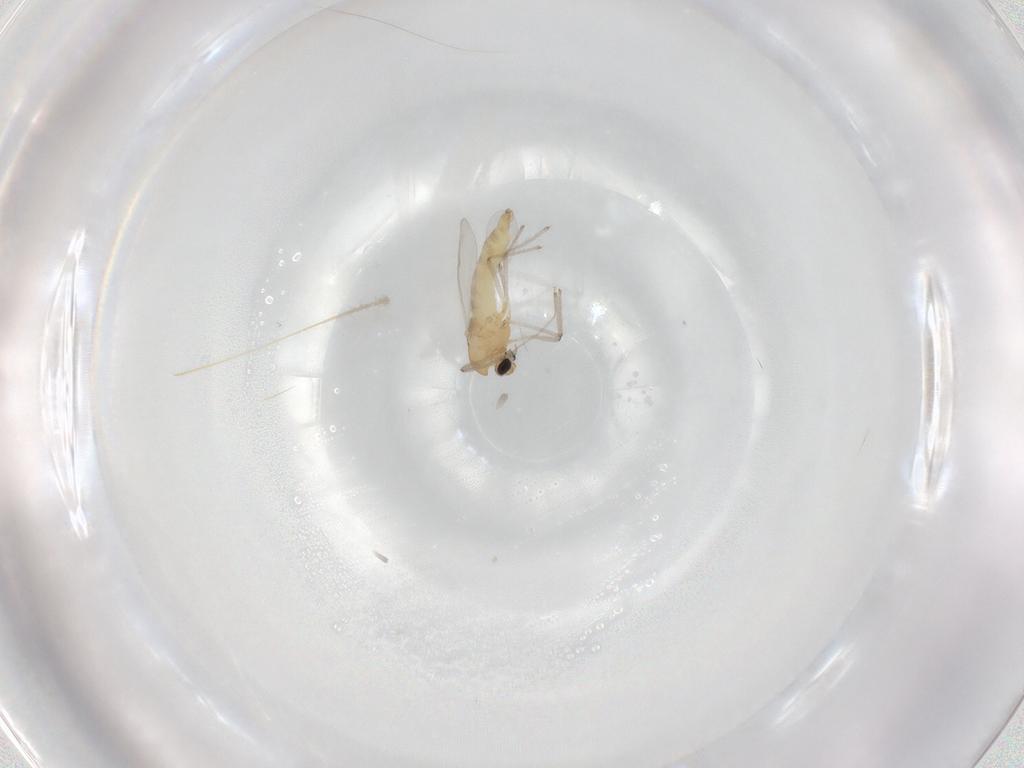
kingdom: Animalia
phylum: Arthropoda
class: Insecta
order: Diptera
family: Chironomidae
